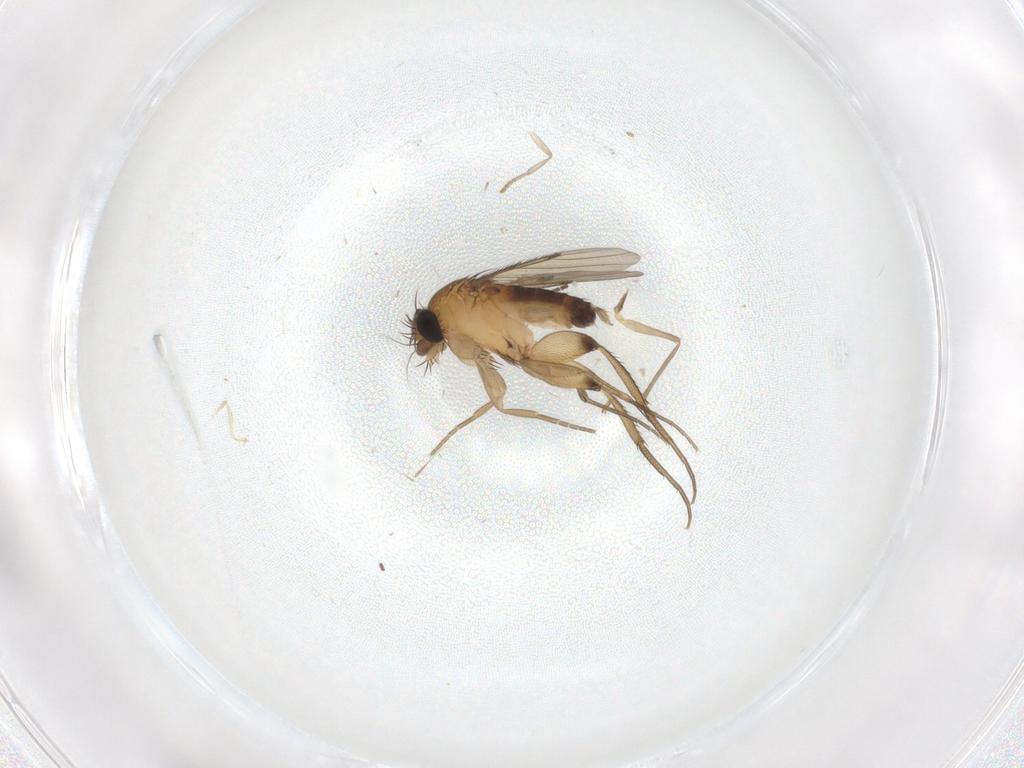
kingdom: Animalia
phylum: Arthropoda
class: Insecta
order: Diptera
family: Phoridae
